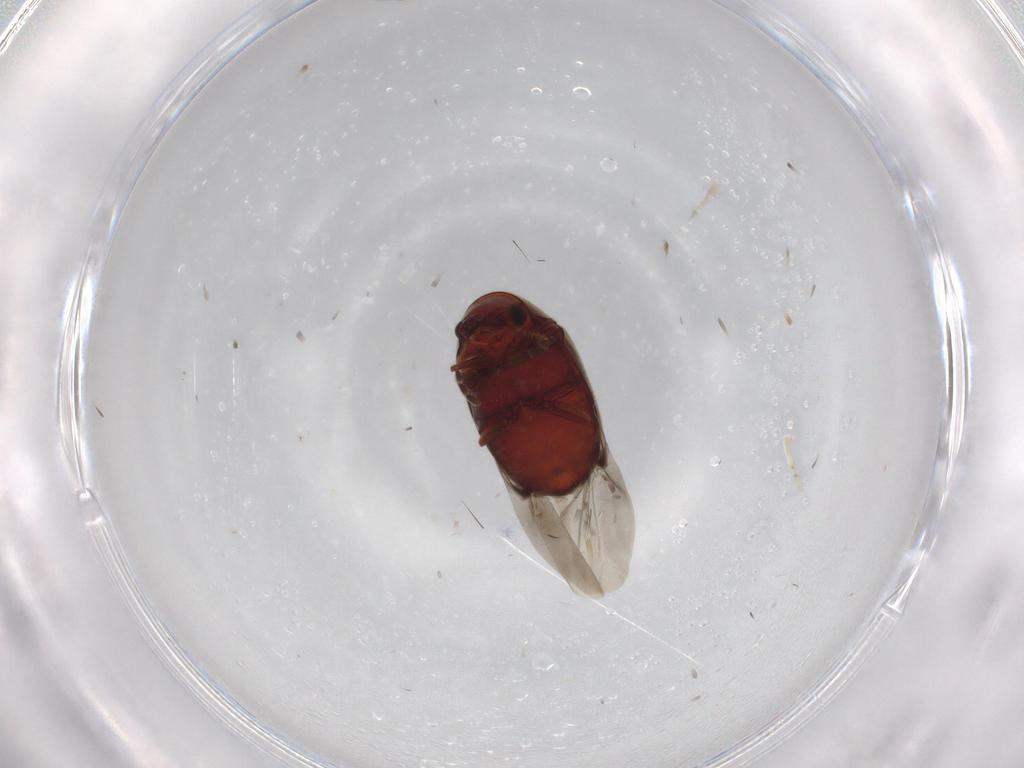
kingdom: Animalia
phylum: Arthropoda
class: Insecta
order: Coleoptera
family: Ptinidae
